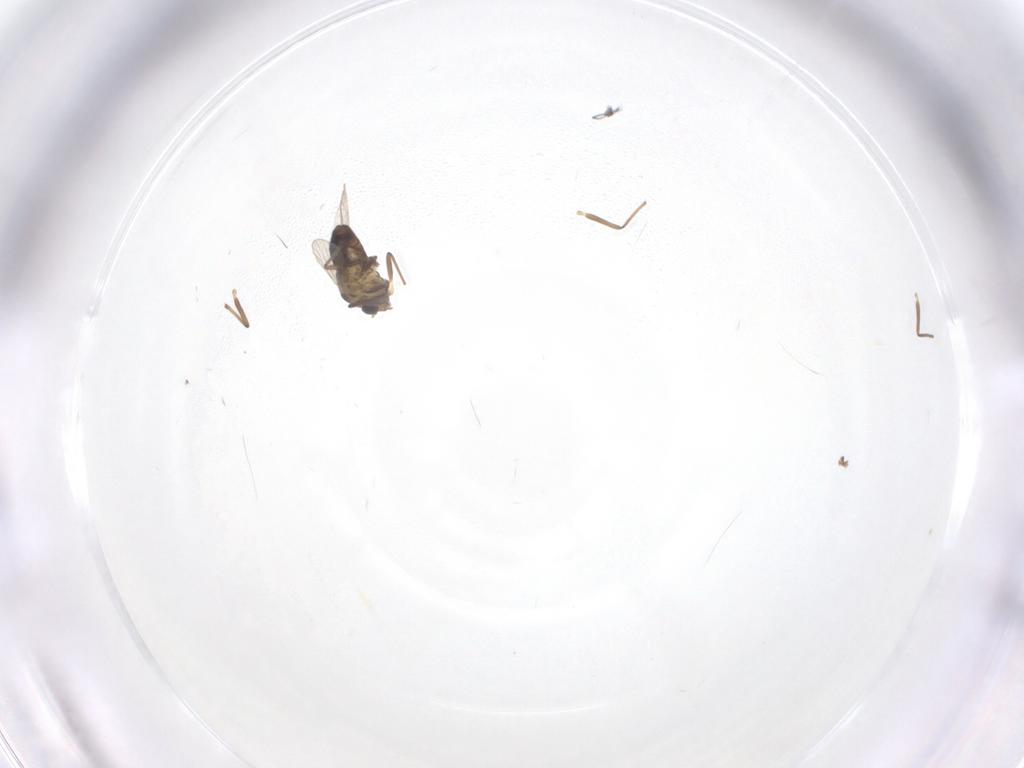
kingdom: Animalia
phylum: Arthropoda
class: Insecta
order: Diptera
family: Chironomidae
